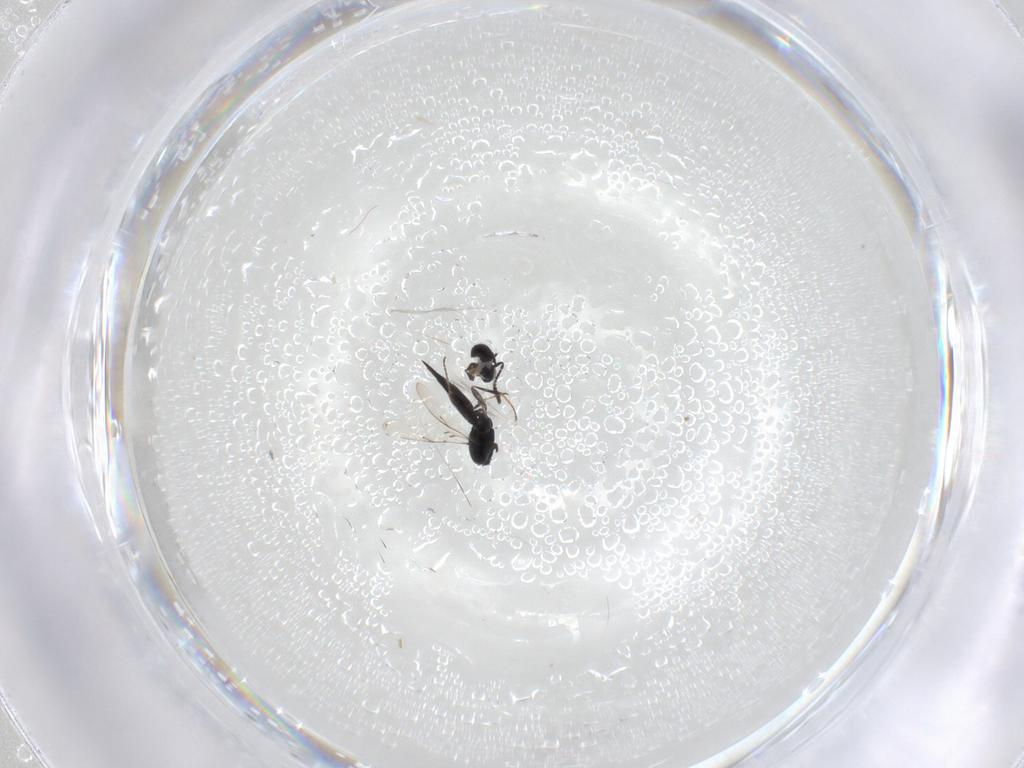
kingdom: Animalia
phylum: Arthropoda
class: Insecta
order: Hymenoptera
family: Scelionidae
